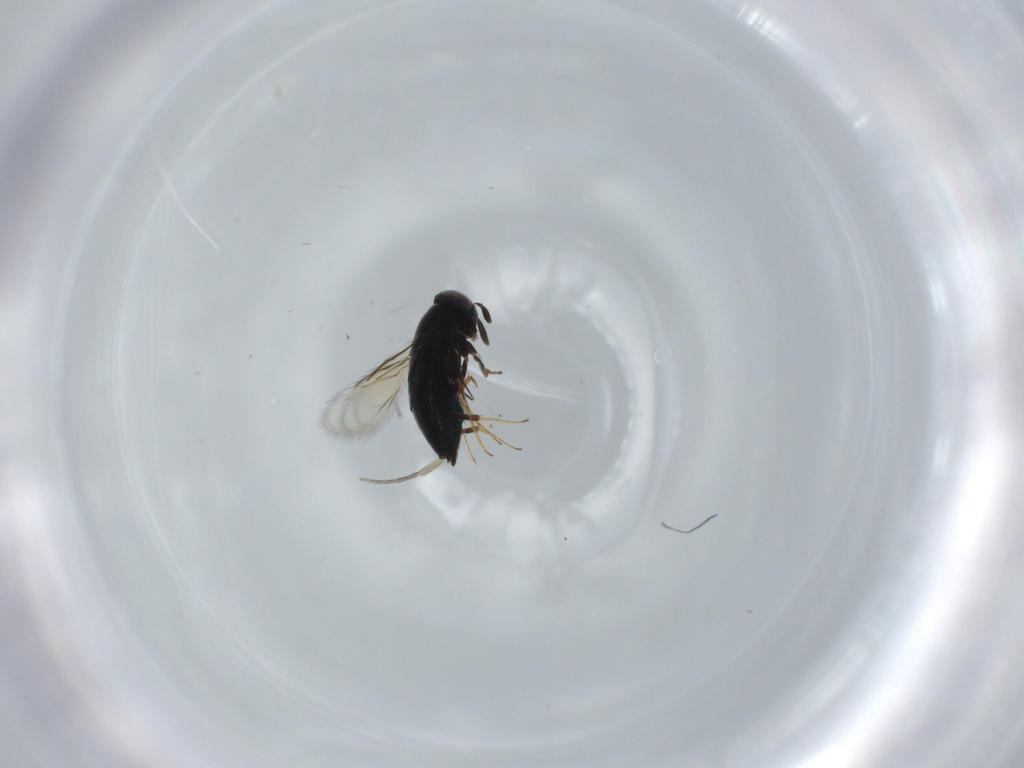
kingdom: Animalia
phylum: Arthropoda
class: Insecta
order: Hymenoptera
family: Signiphoridae
